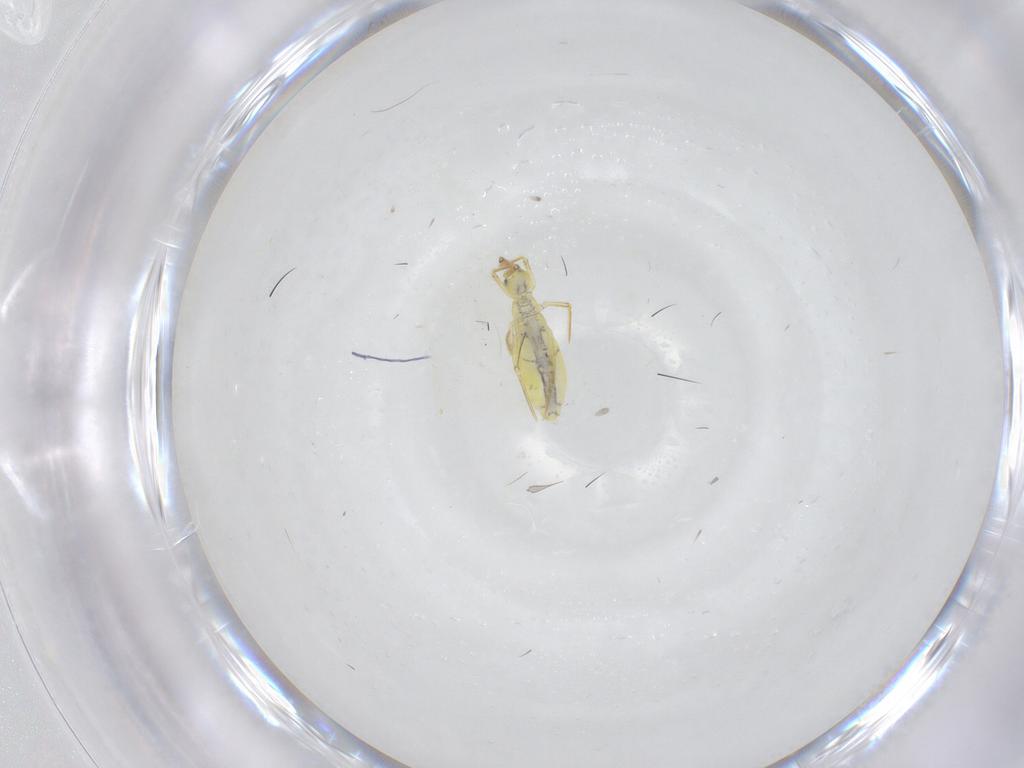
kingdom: Animalia
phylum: Arthropoda
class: Collembola
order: Entomobryomorpha
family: Entomobryidae
